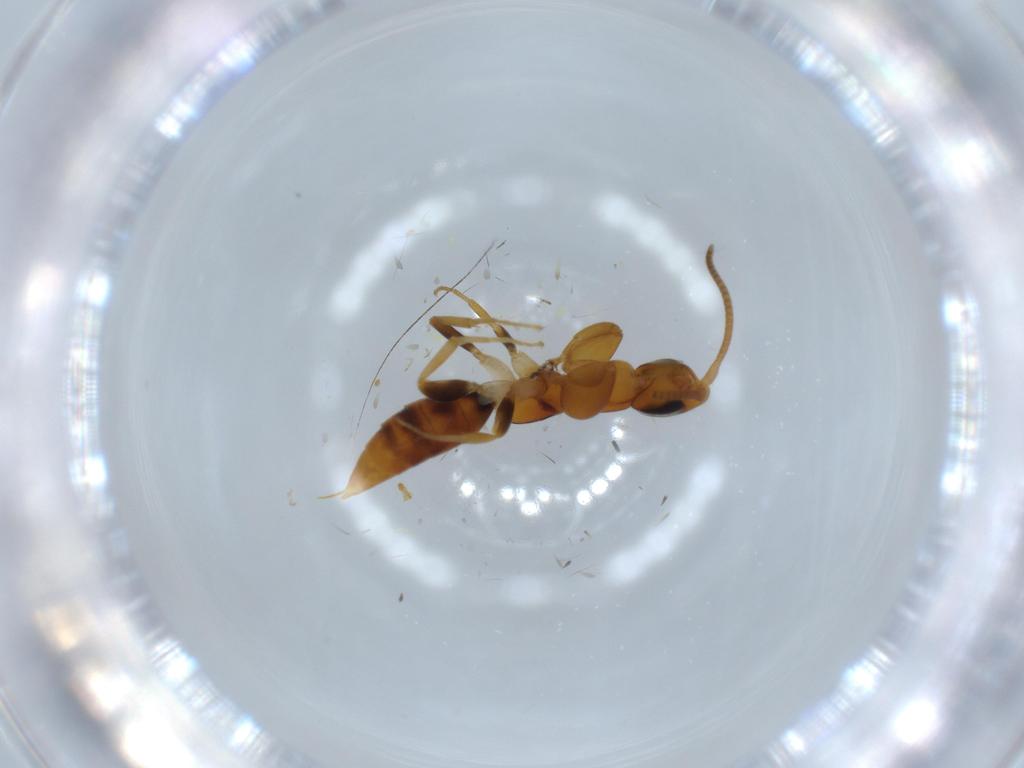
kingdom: Animalia
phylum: Arthropoda
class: Insecta
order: Hymenoptera
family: Sclerogibbidae
